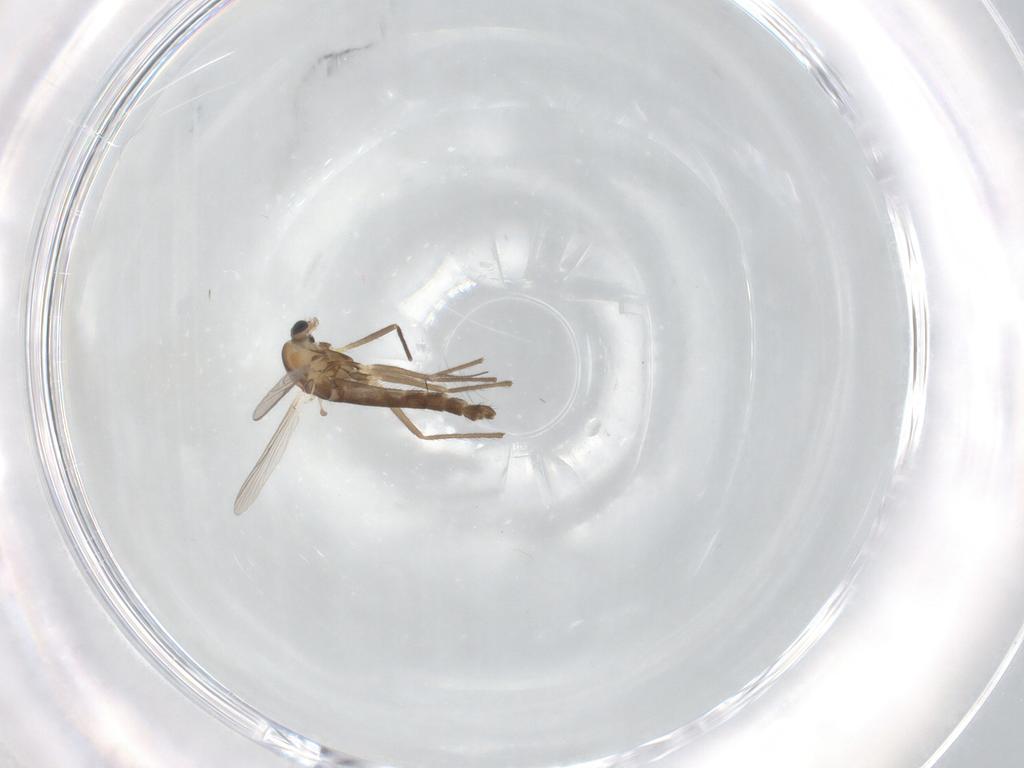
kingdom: Animalia
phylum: Arthropoda
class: Insecta
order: Diptera
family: Chironomidae
